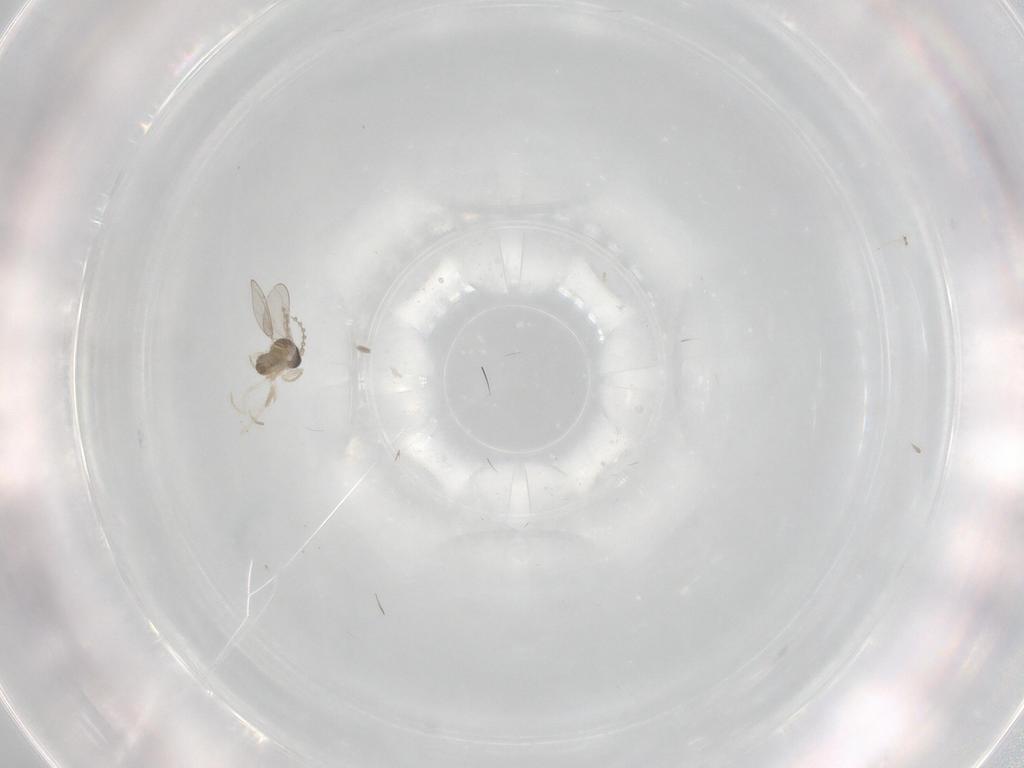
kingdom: Animalia
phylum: Arthropoda
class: Insecta
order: Diptera
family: Cecidomyiidae
